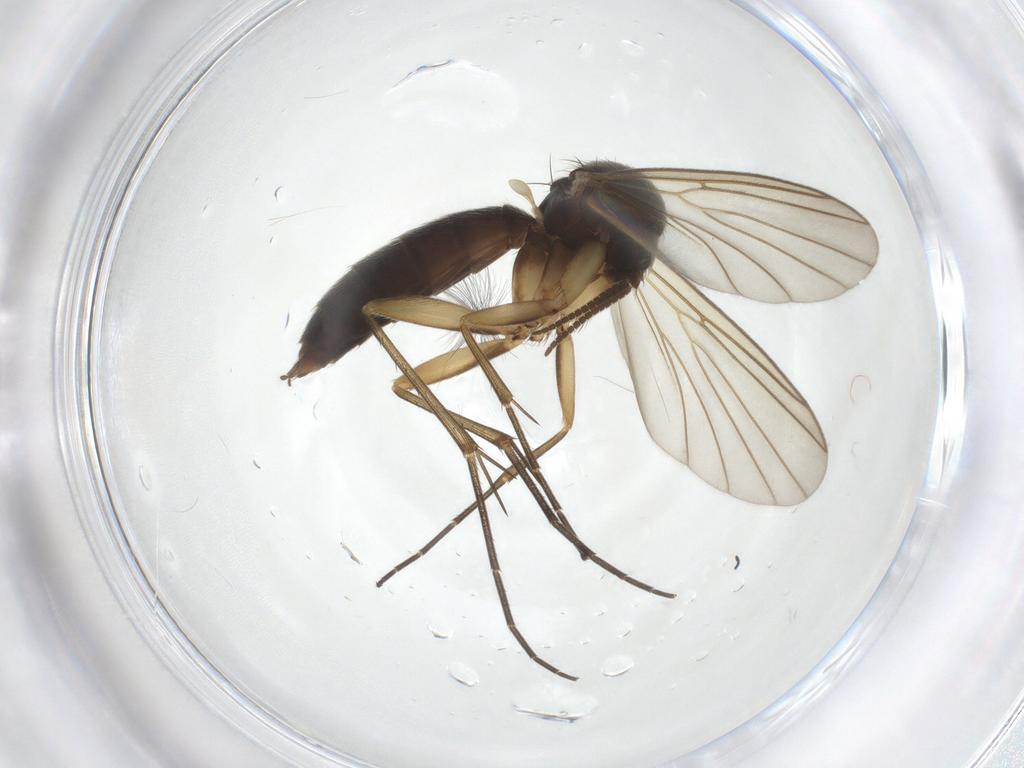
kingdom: Animalia
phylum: Arthropoda
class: Insecta
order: Diptera
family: Mycetophilidae
